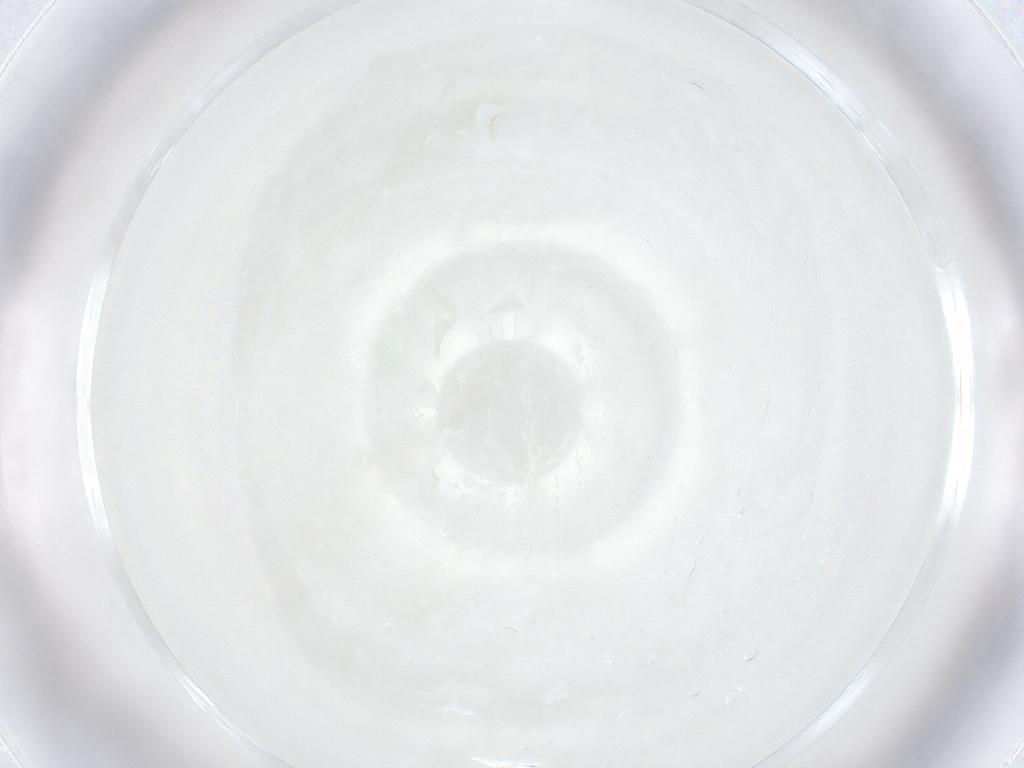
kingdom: Animalia
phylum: Arthropoda
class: Insecta
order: Diptera
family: Chironomidae
